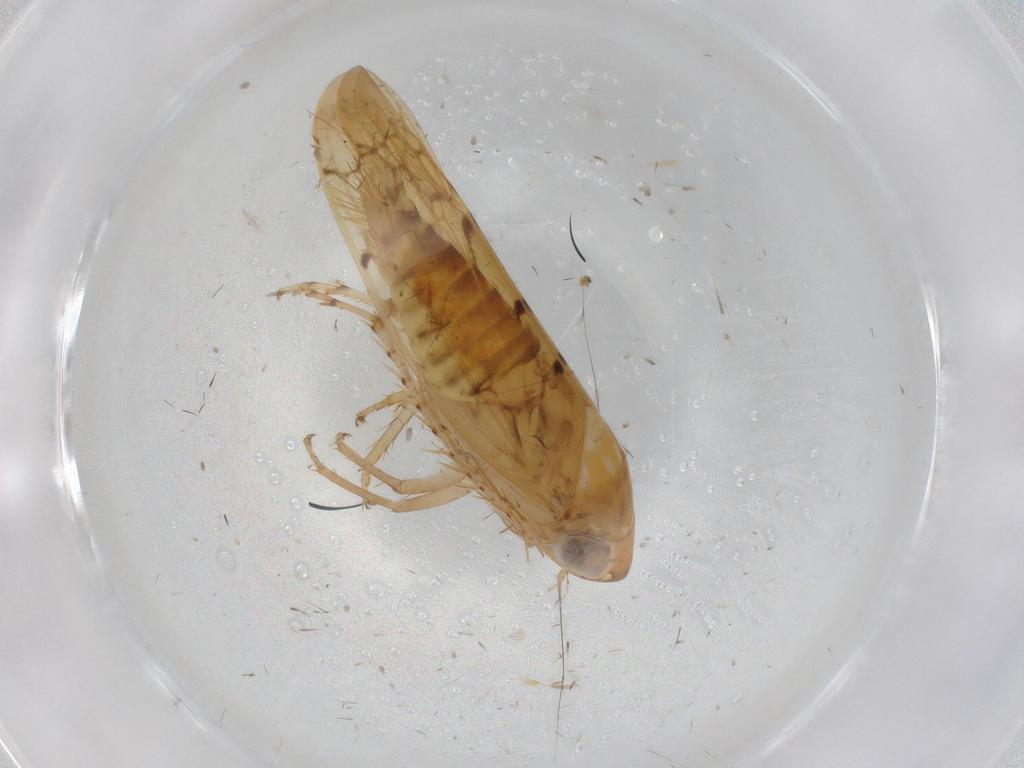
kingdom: Animalia
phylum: Arthropoda
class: Insecta
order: Hemiptera
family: Cicadellidae
